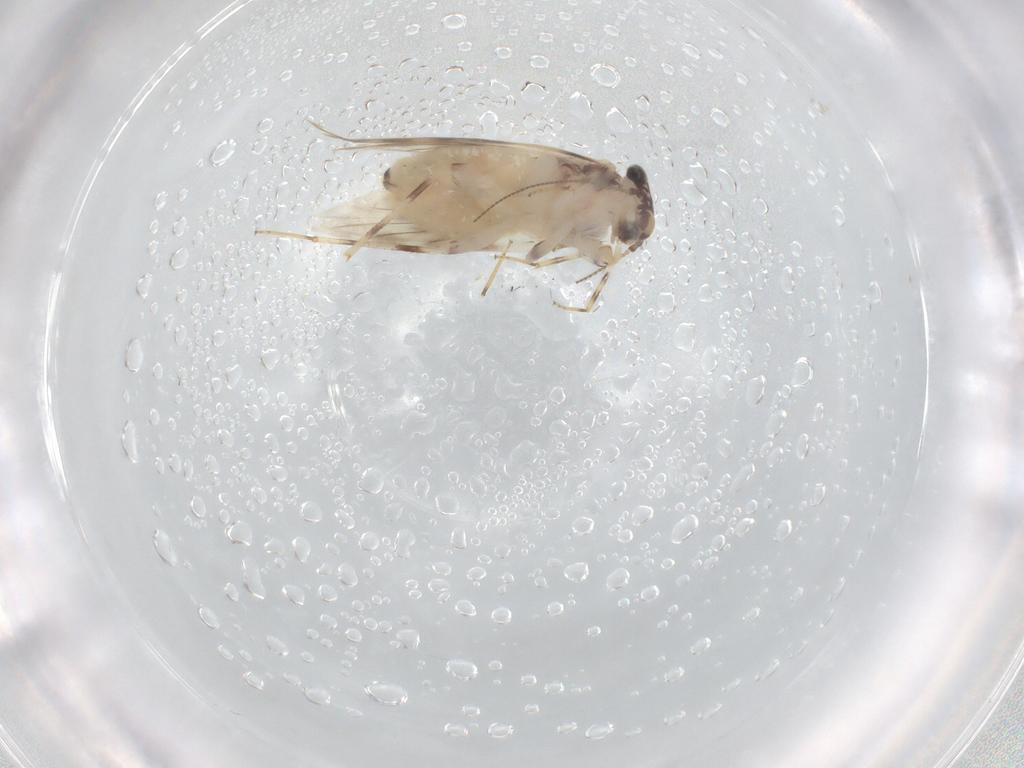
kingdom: Animalia
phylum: Arthropoda
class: Insecta
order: Psocodea
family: Lepidopsocidae
